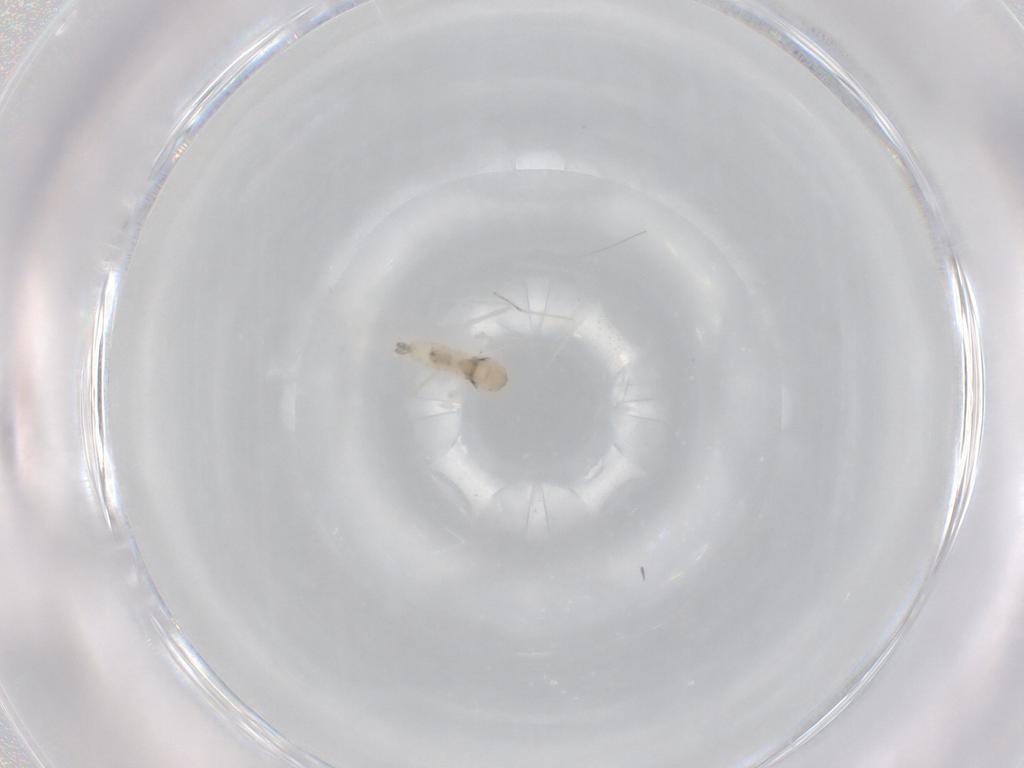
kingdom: Animalia
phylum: Arthropoda
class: Insecta
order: Diptera
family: Cecidomyiidae
